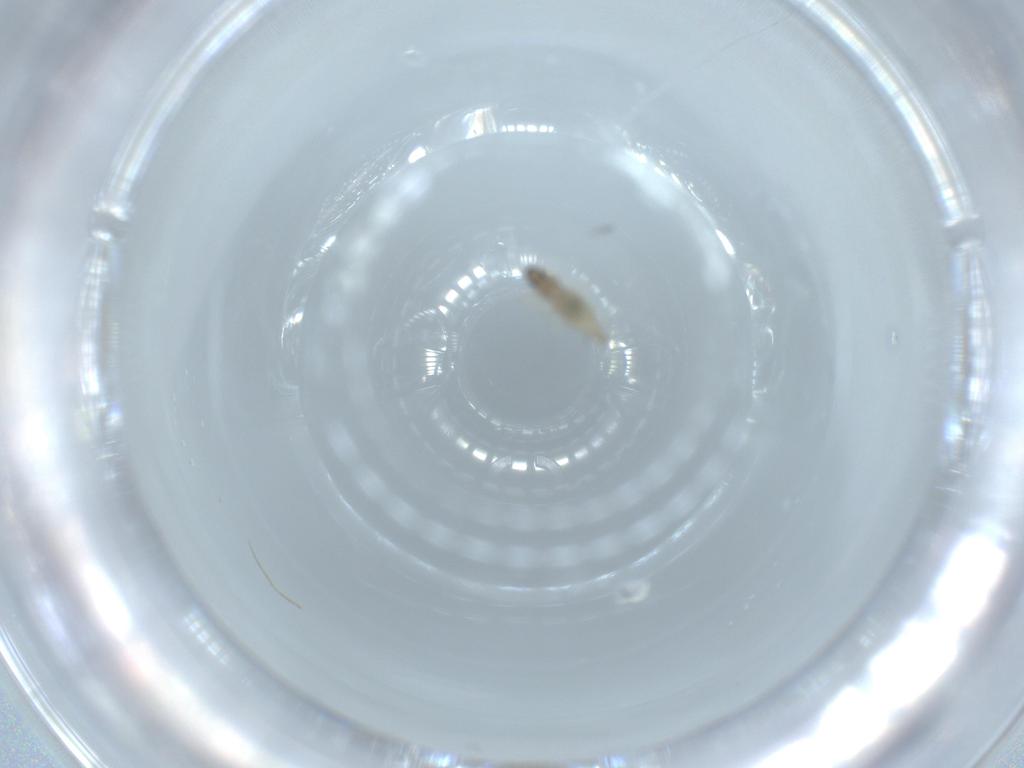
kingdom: Animalia
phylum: Arthropoda
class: Insecta
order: Diptera
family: Cecidomyiidae
